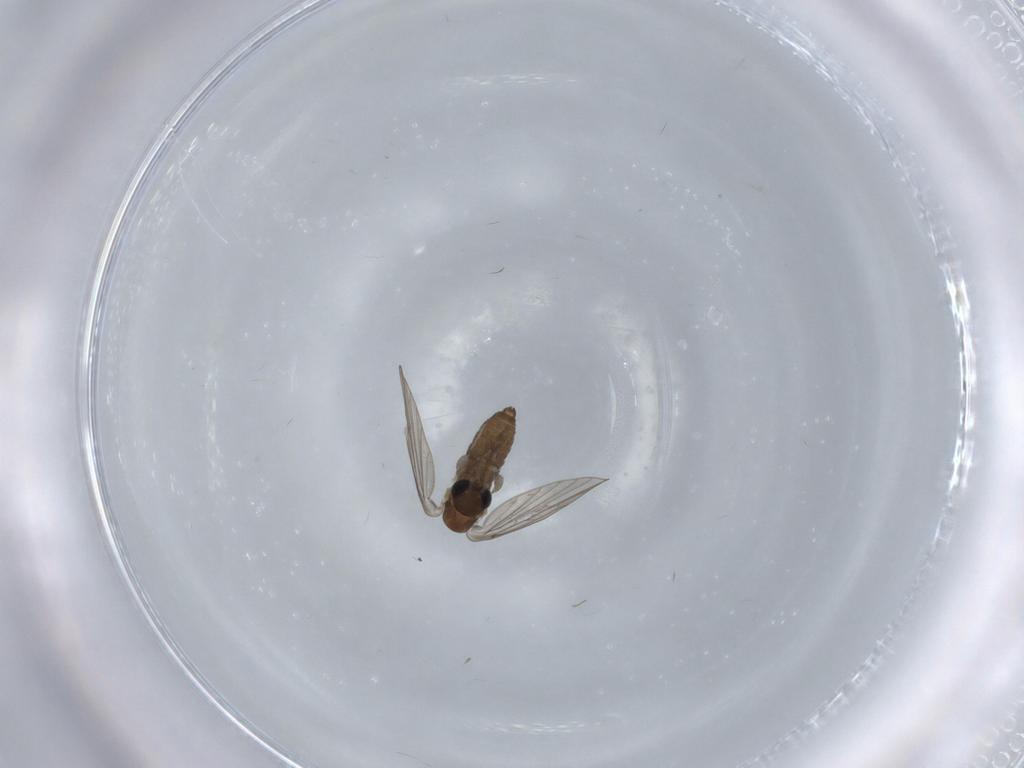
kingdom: Animalia
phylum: Arthropoda
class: Insecta
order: Diptera
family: Psychodidae
